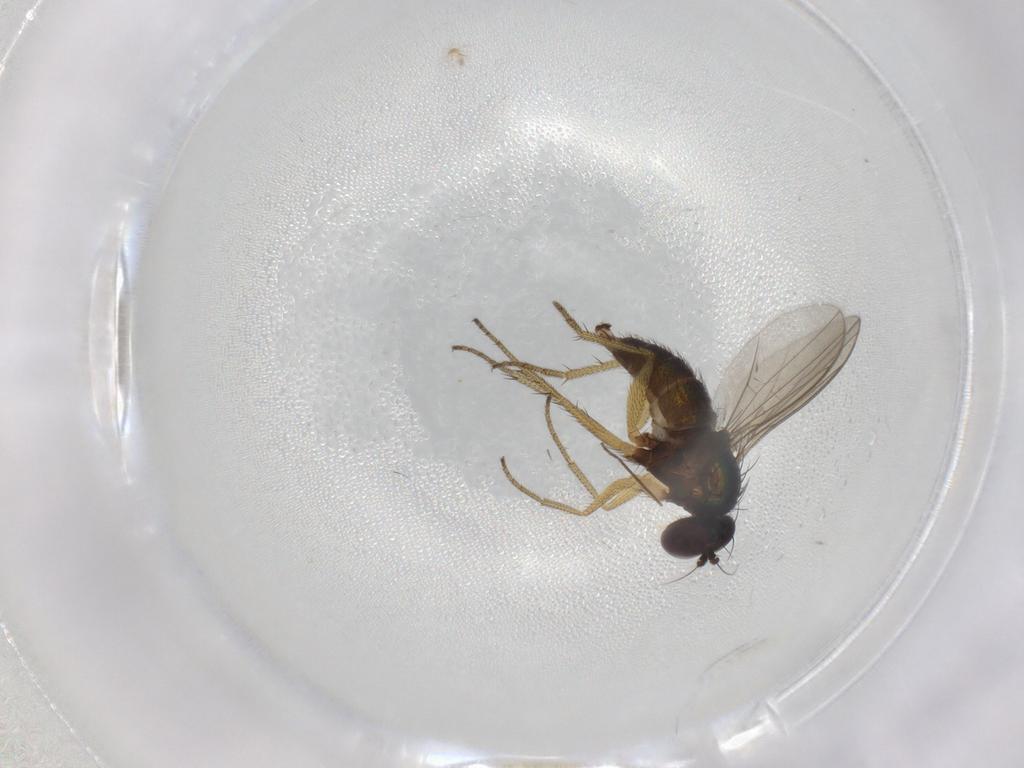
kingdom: Animalia
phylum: Arthropoda
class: Insecta
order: Diptera
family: Dolichopodidae
